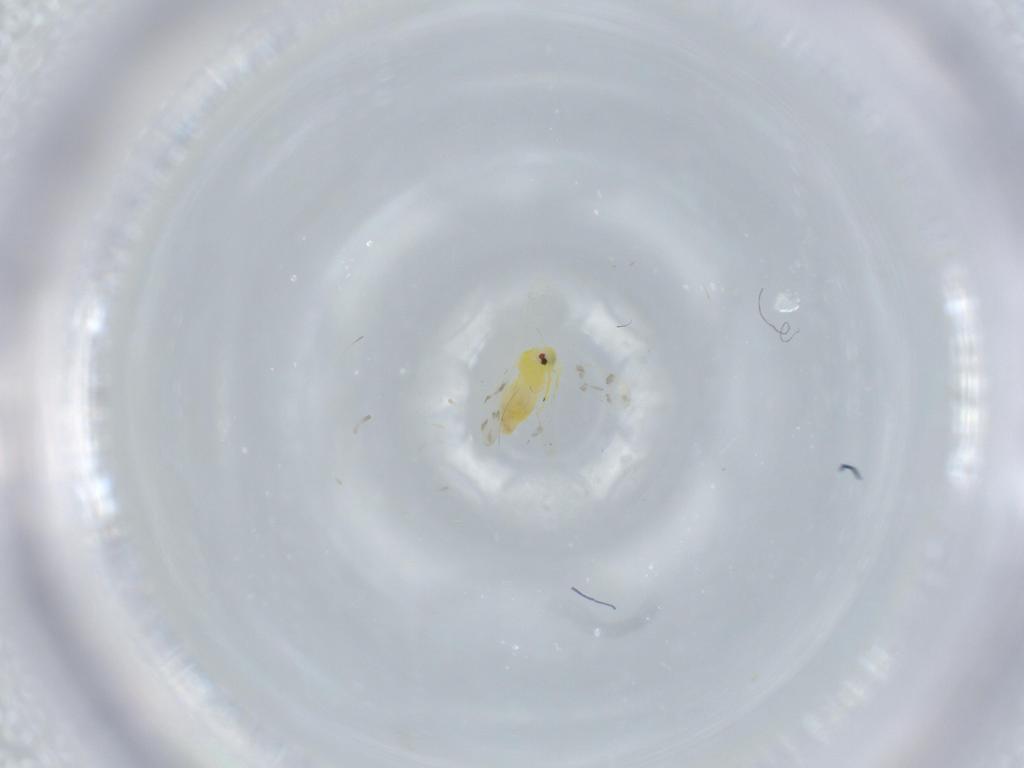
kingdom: Animalia
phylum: Arthropoda
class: Insecta
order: Hemiptera
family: Aleyrodidae
